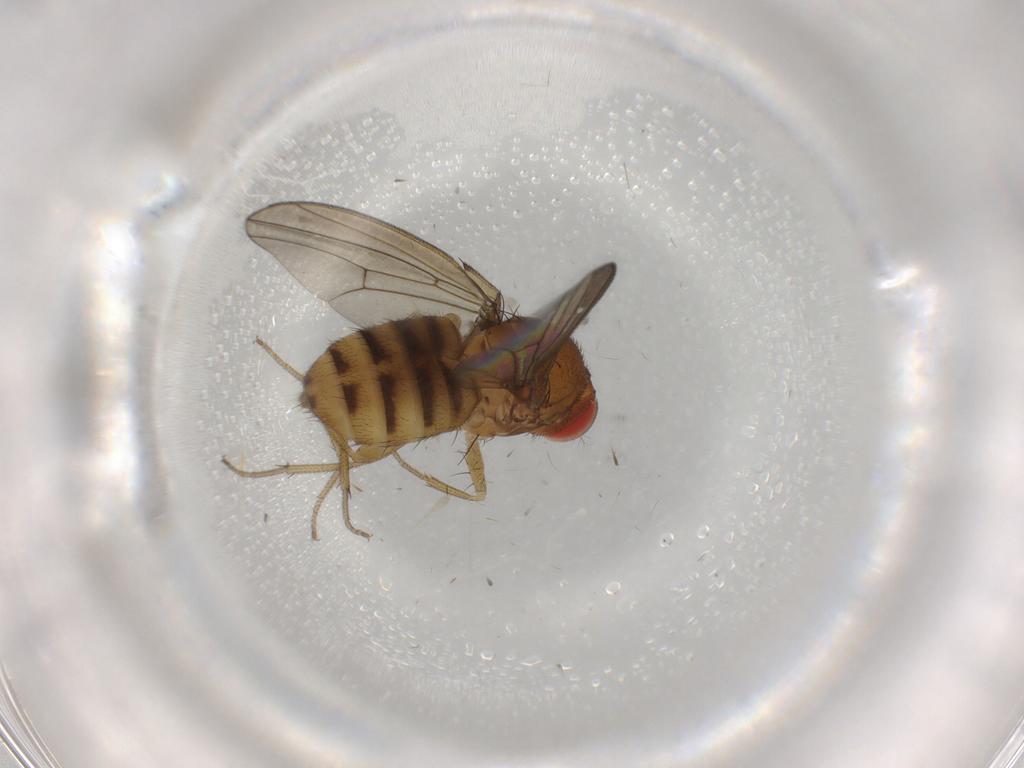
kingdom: Animalia
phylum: Arthropoda
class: Insecta
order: Diptera
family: Drosophilidae
